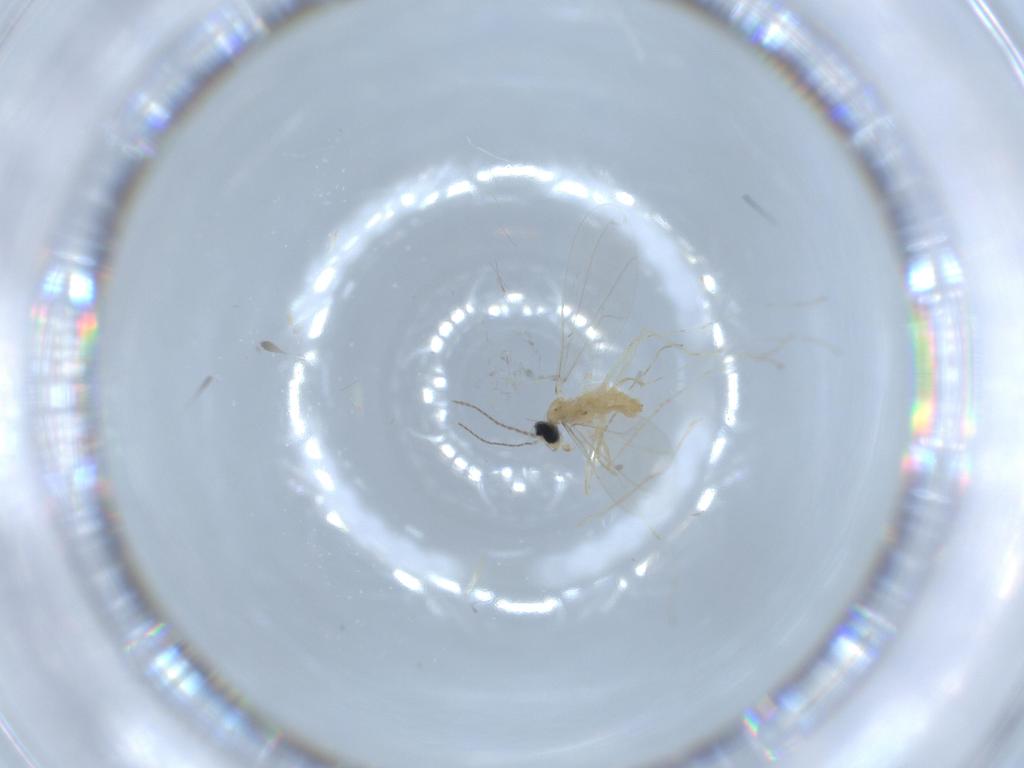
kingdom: Animalia
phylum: Arthropoda
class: Insecta
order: Diptera
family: Cecidomyiidae
